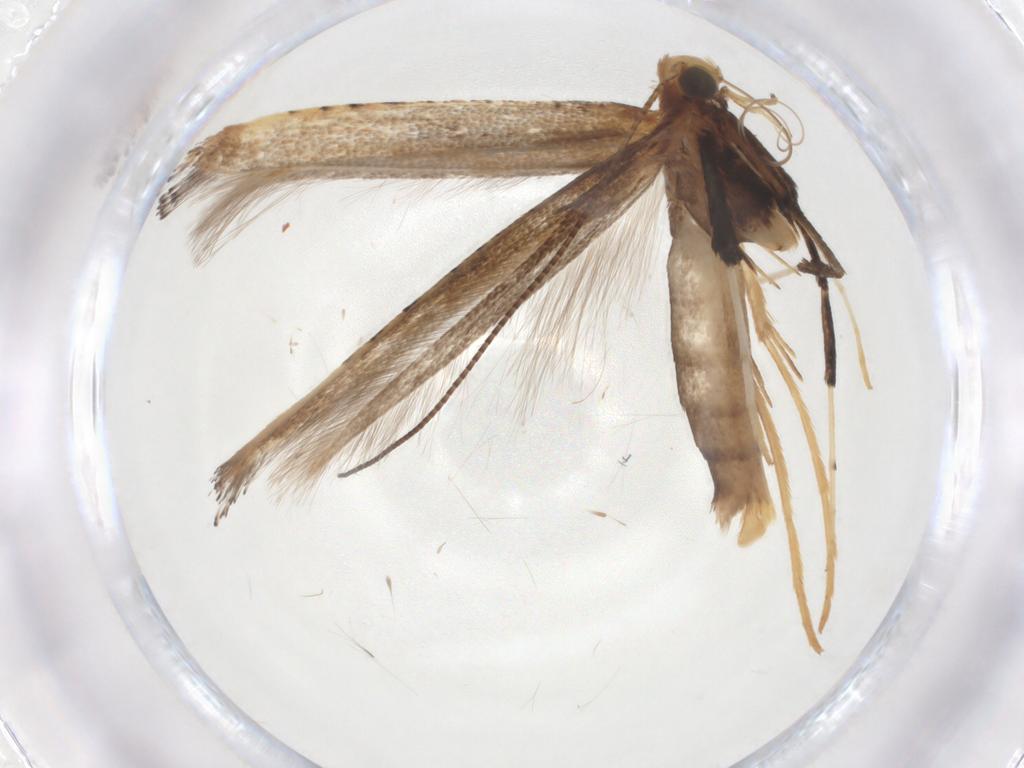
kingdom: Animalia
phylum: Arthropoda
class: Insecta
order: Lepidoptera
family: Gracillariidae
